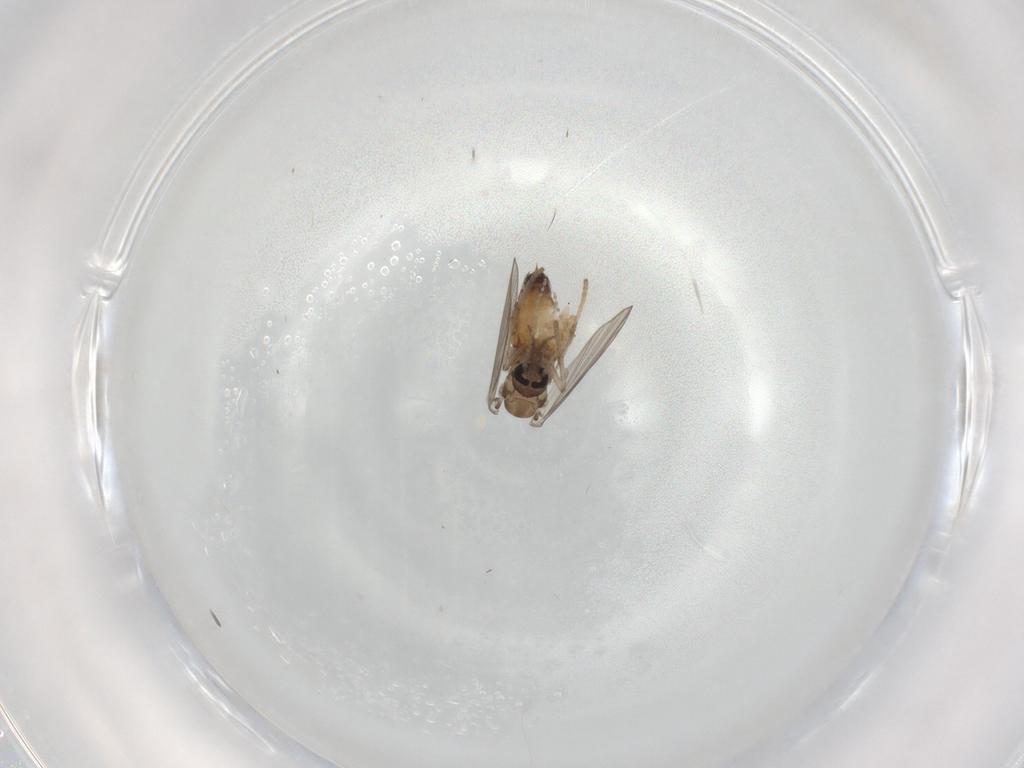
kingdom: Animalia
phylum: Arthropoda
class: Insecta
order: Diptera
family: Psychodidae
